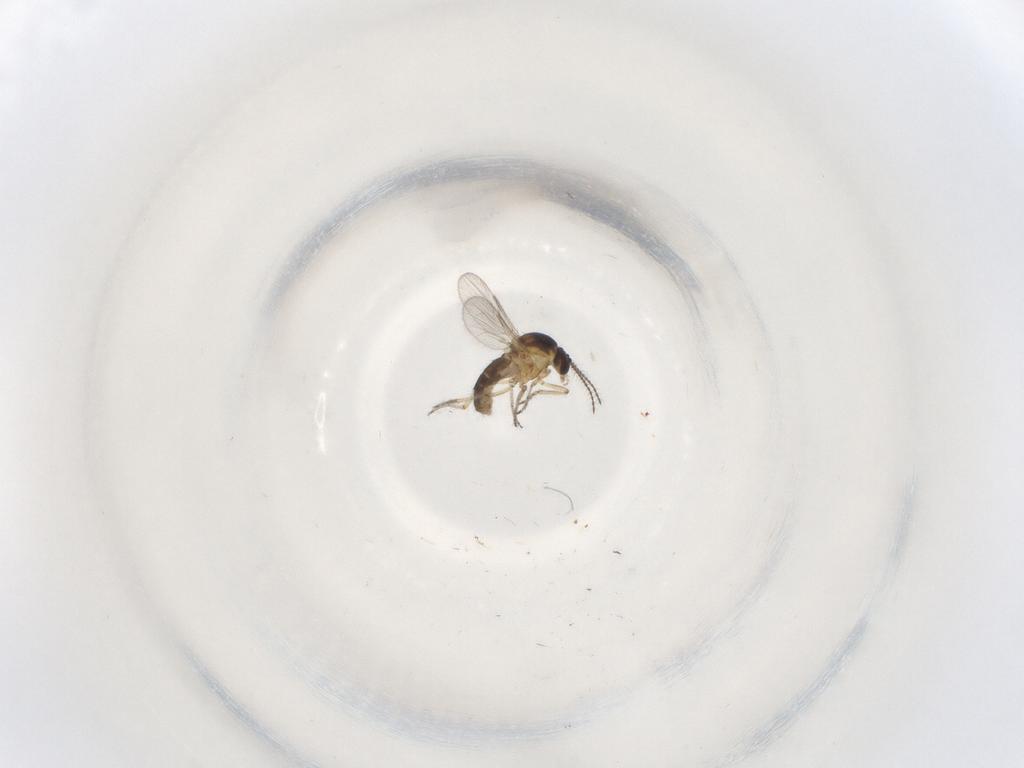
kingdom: Animalia
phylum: Arthropoda
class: Insecta
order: Diptera
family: Ceratopogonidae
